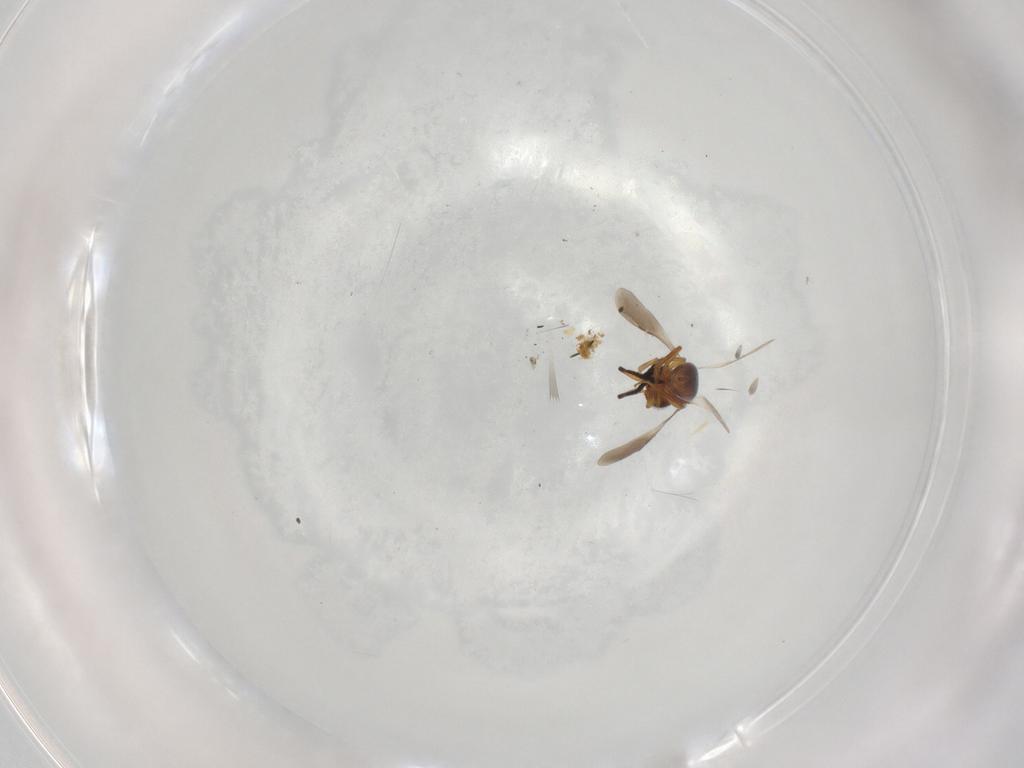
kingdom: Animalia
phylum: Arthropoda
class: Insecta
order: Hymenoptera
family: Ceraphronidae
